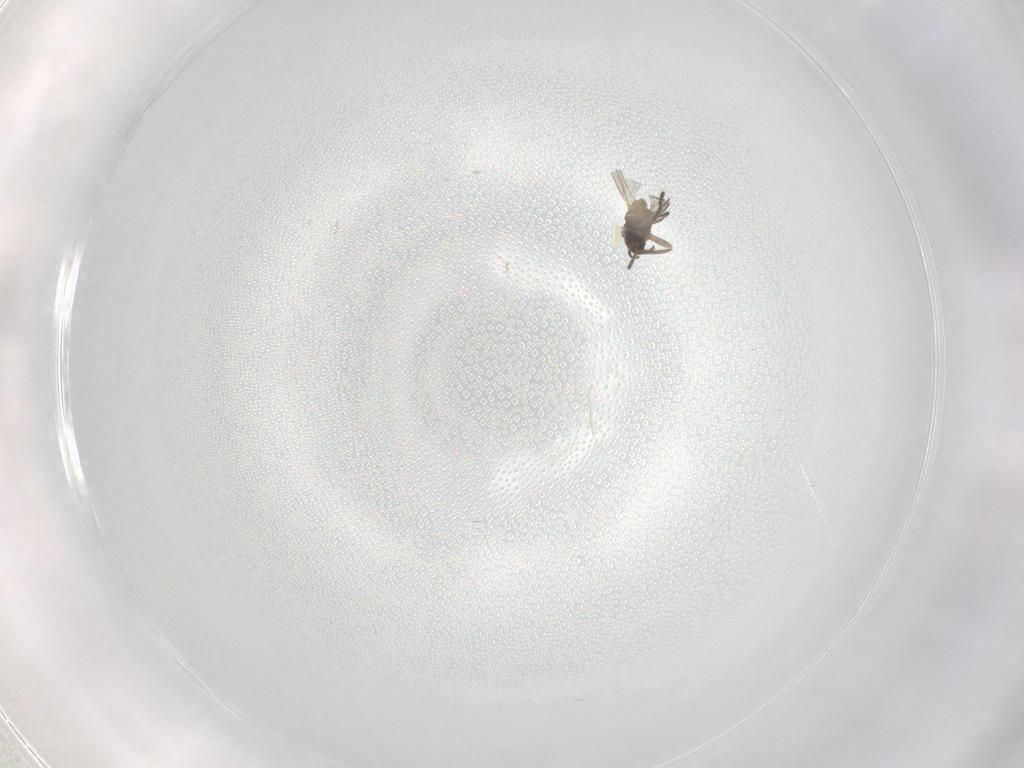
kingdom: Animalia
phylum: Arthropoda
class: Insecta
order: Diptera
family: Cecidomyiidae
